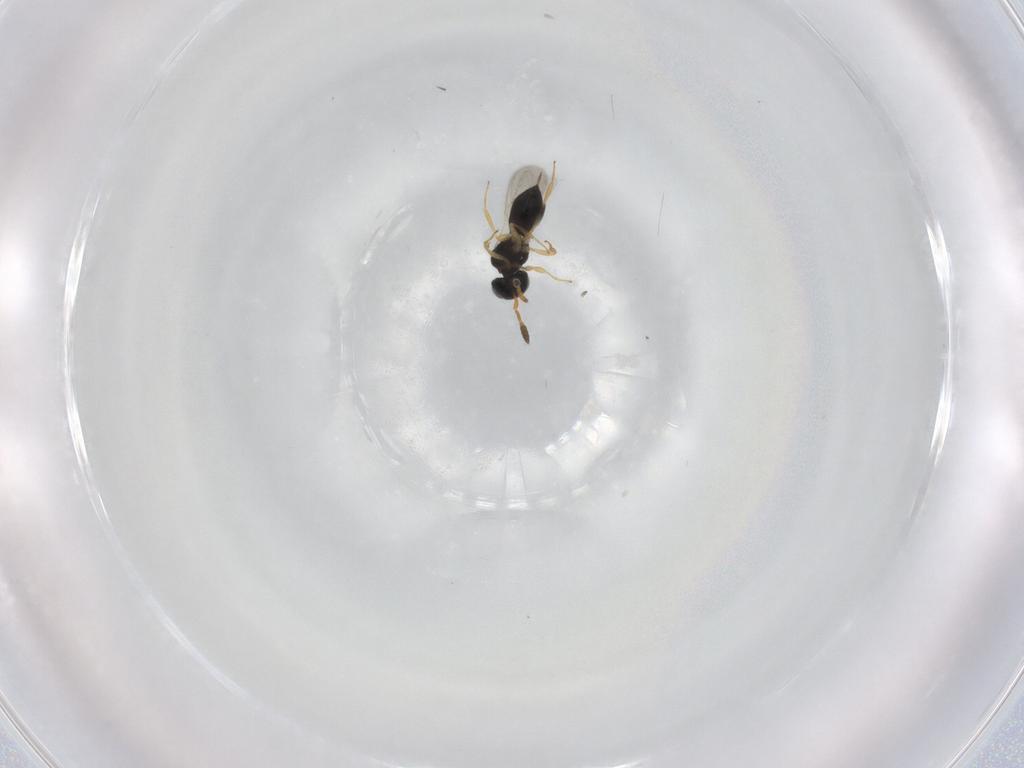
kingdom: Animalia
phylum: Arthropoda
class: Insecta
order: Hymenoptera
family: Scelionidae
